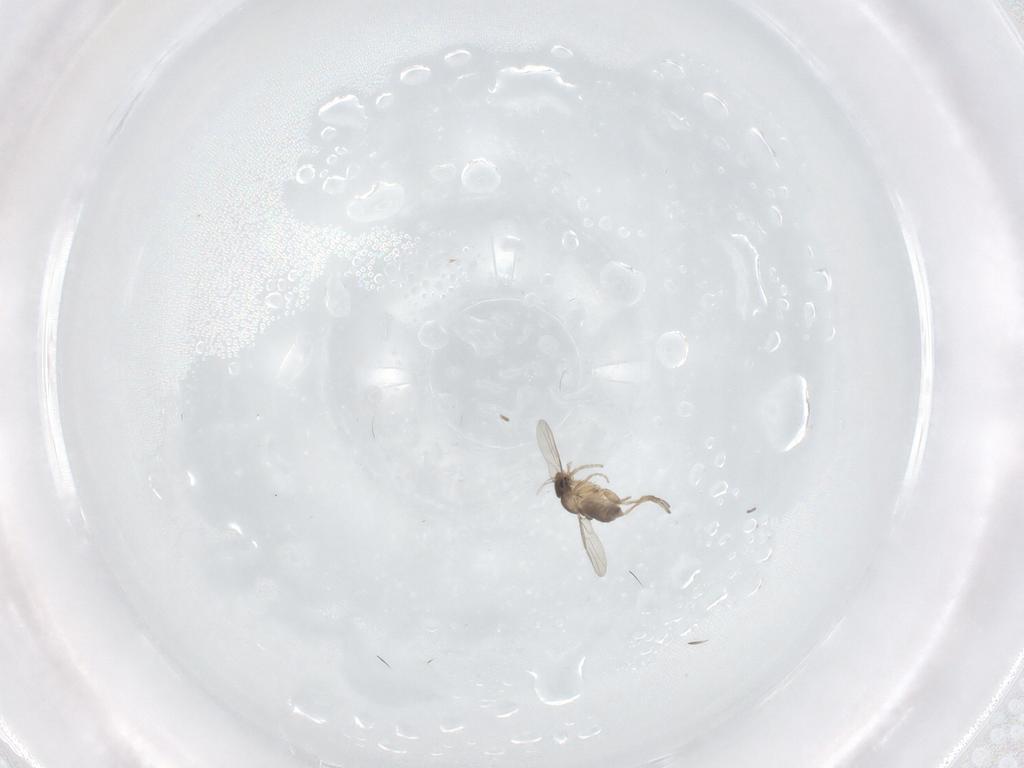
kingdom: Animalia
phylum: Arthropoda
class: Insecta
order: Diptera
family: Phoridae
